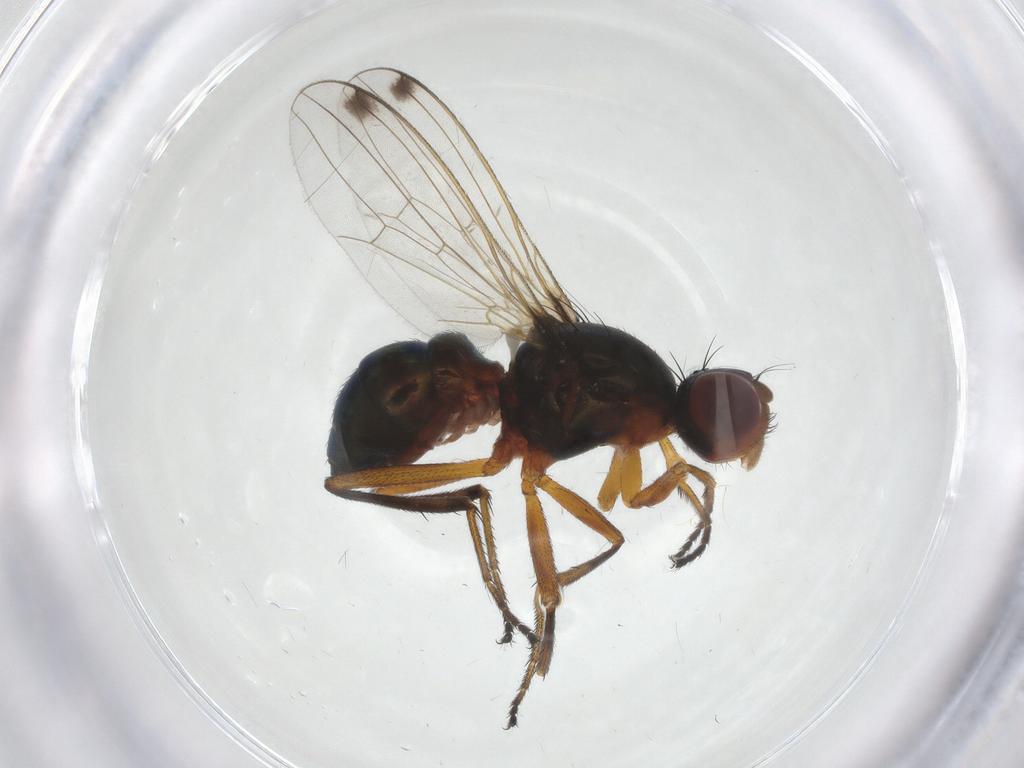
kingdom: Animalia
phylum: Arthropoda
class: Insecta
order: Diptera
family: Sepsidae
